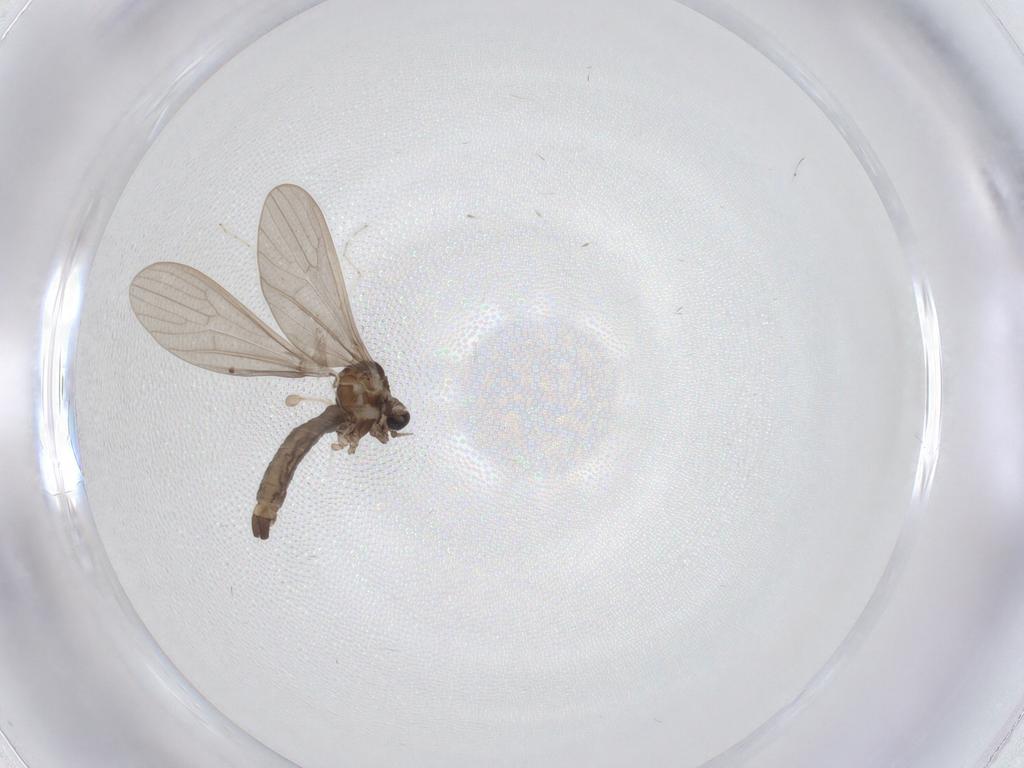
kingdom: Animalia
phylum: Arthropoda
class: Insecta
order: Diptera
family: Limoniidae
